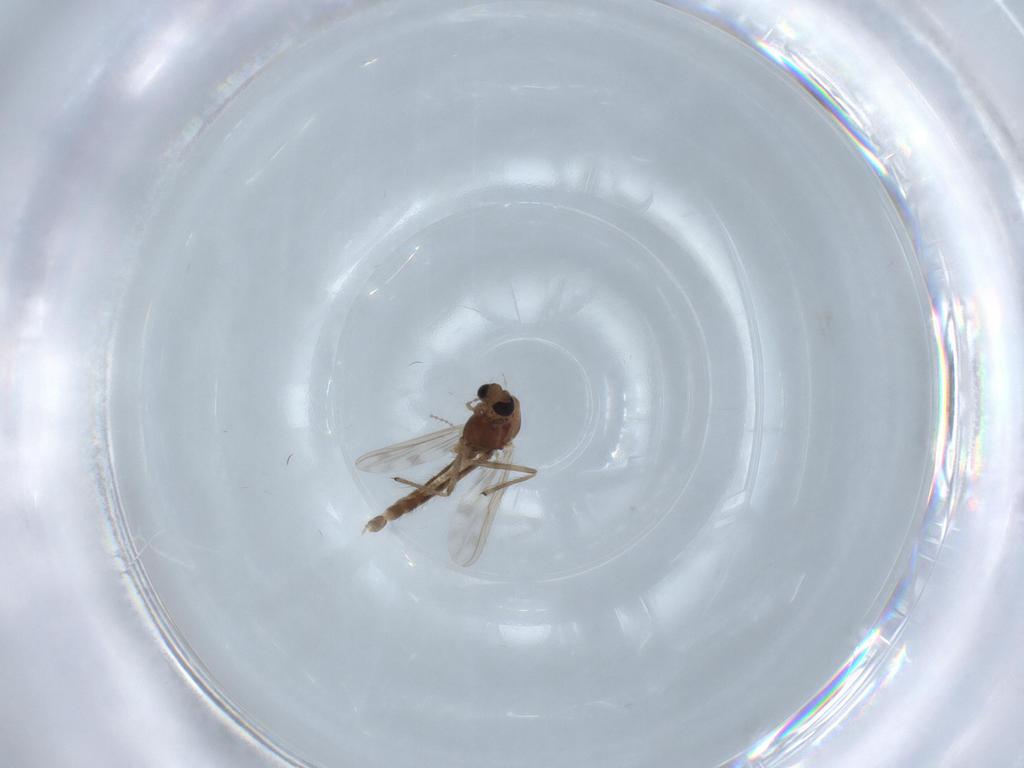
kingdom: Animalia
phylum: Arthropoda
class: Insecta
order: Diptera
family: Chironomidae
